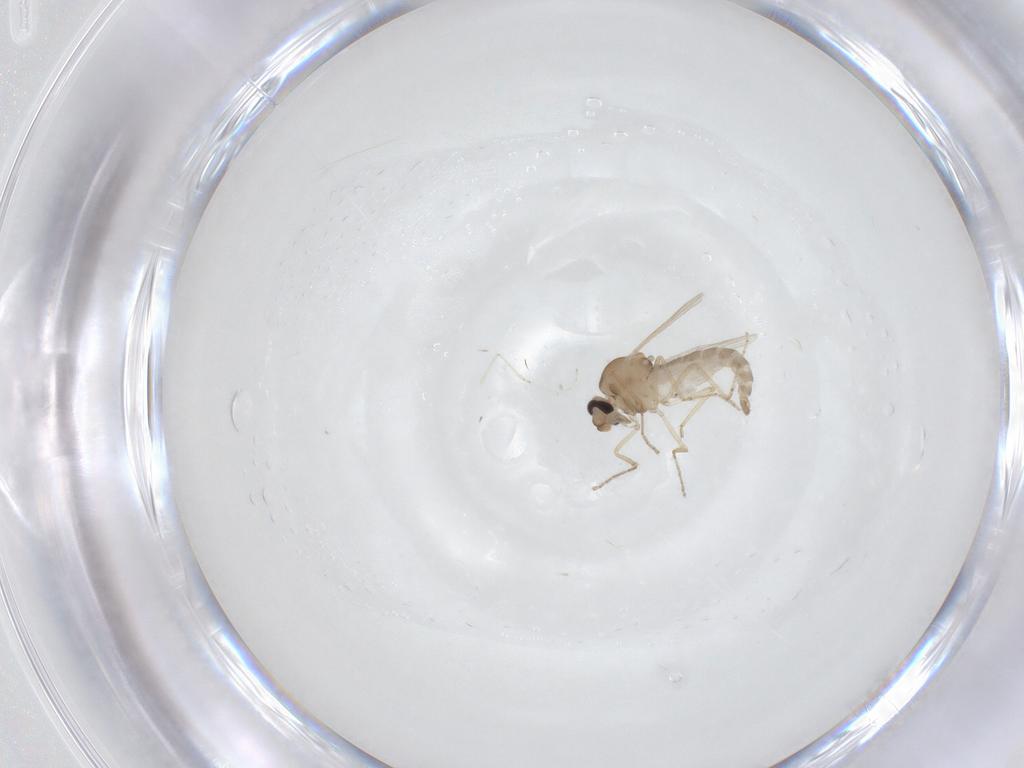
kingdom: Animalia
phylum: Arthropoda
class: Insecta
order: Diptera
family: Ceratopogonidae
